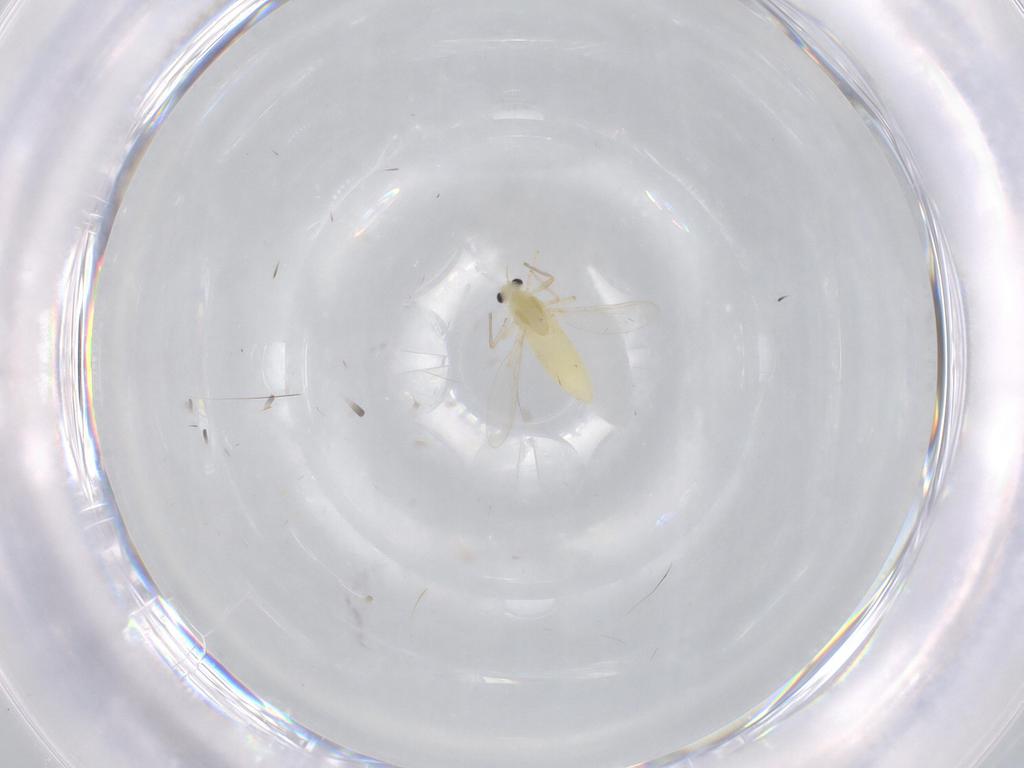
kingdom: Animalia
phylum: Arthropoda
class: Insecta
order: Diptera
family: Chironomidae
